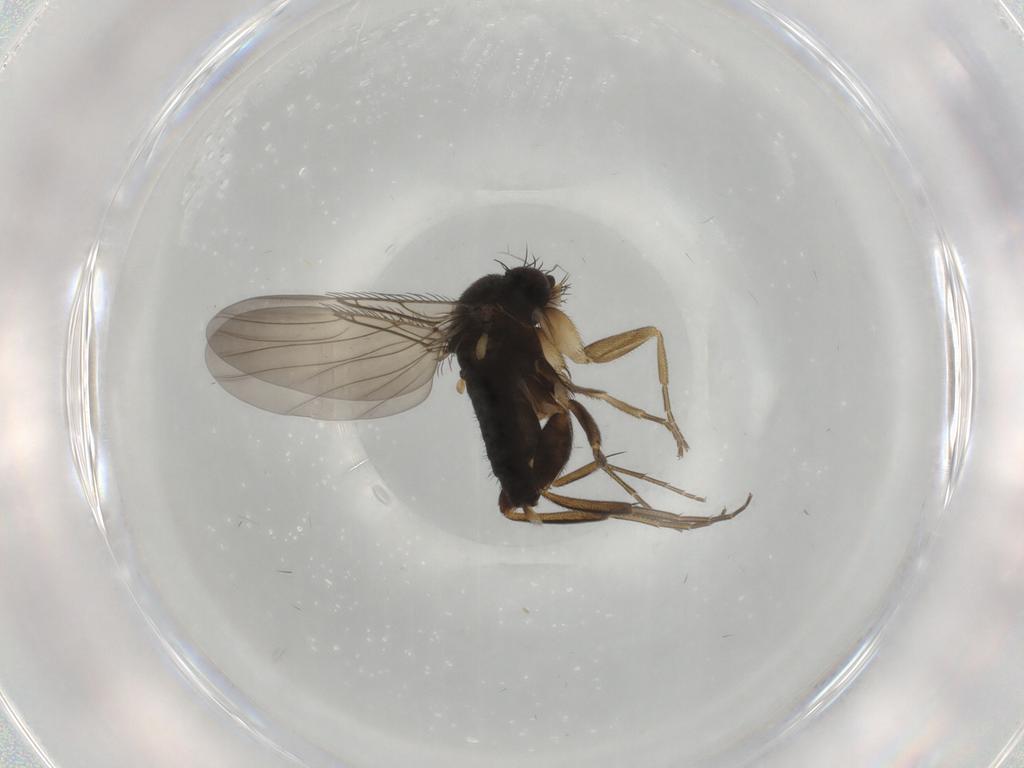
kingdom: Animalia
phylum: Arthropoda
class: Insecta
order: Diptera
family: Phoridae
